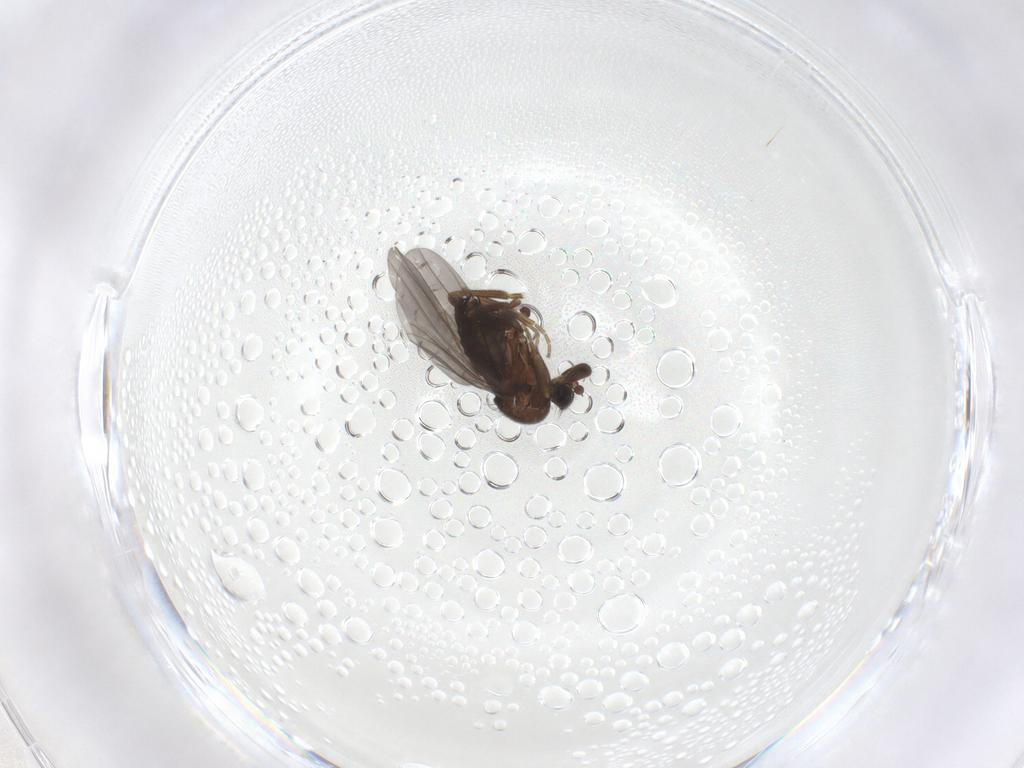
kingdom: Animalia
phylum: Arthropoda
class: Insecta
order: Diptera
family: Phoridae
